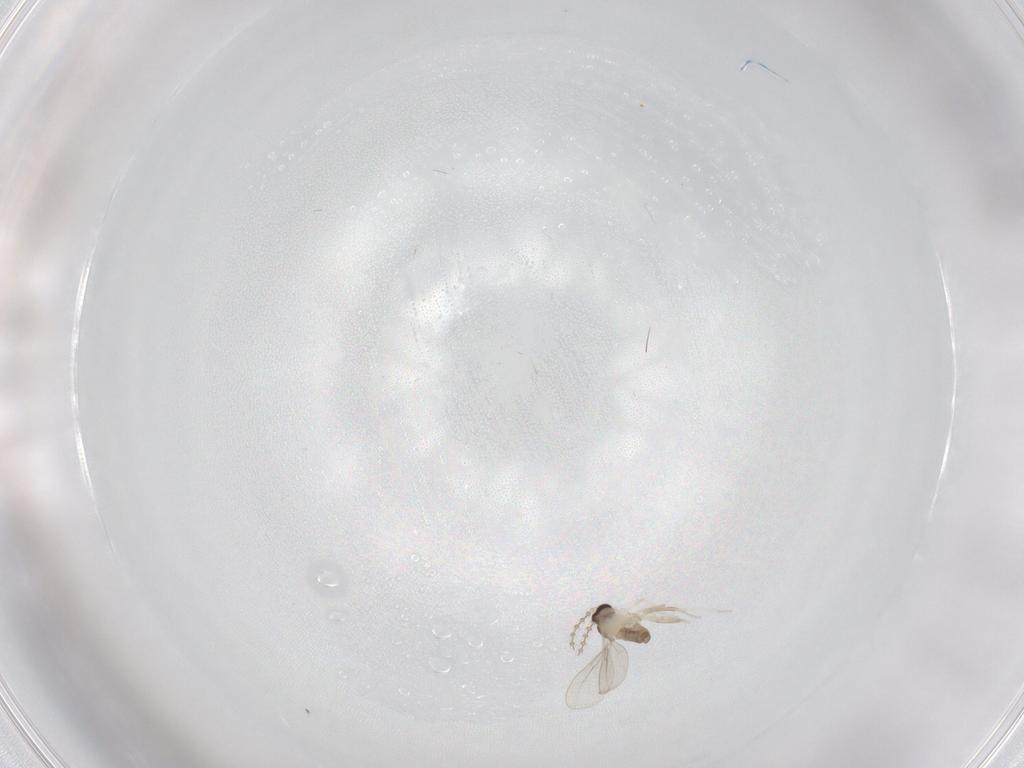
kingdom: Animalia
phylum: Arthropoda
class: Insecta
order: Diptera
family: Cecidomyiidae
